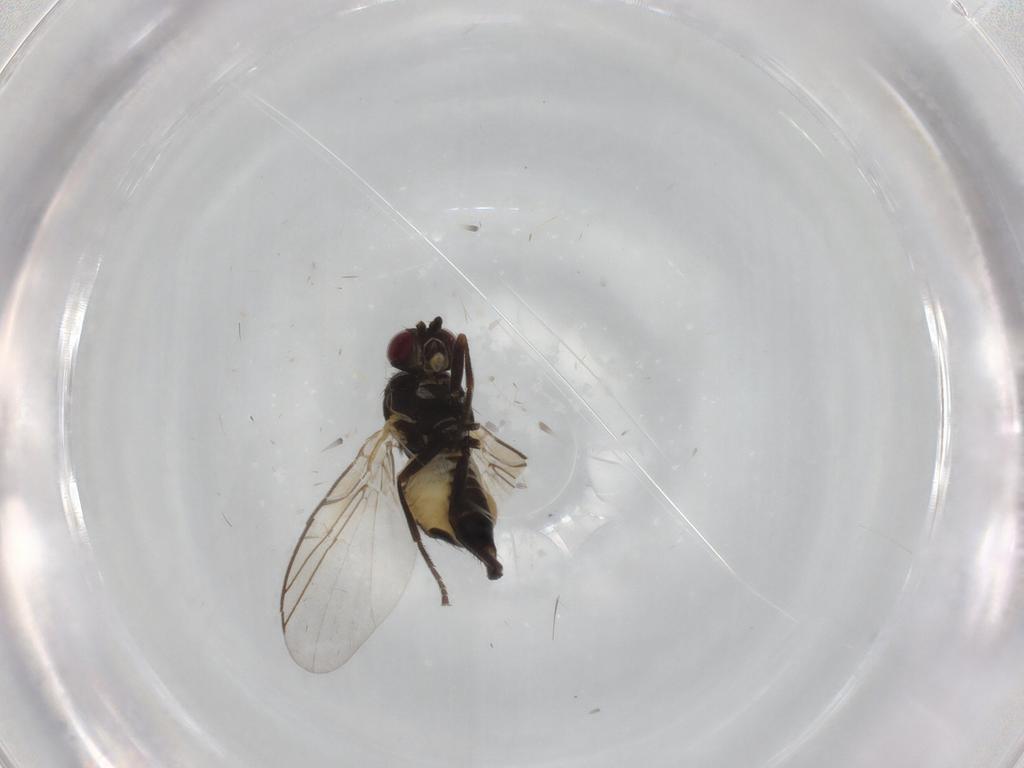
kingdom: Animalia
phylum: Arthropoda
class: Insecta
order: Diptera
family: Agromyzidae
